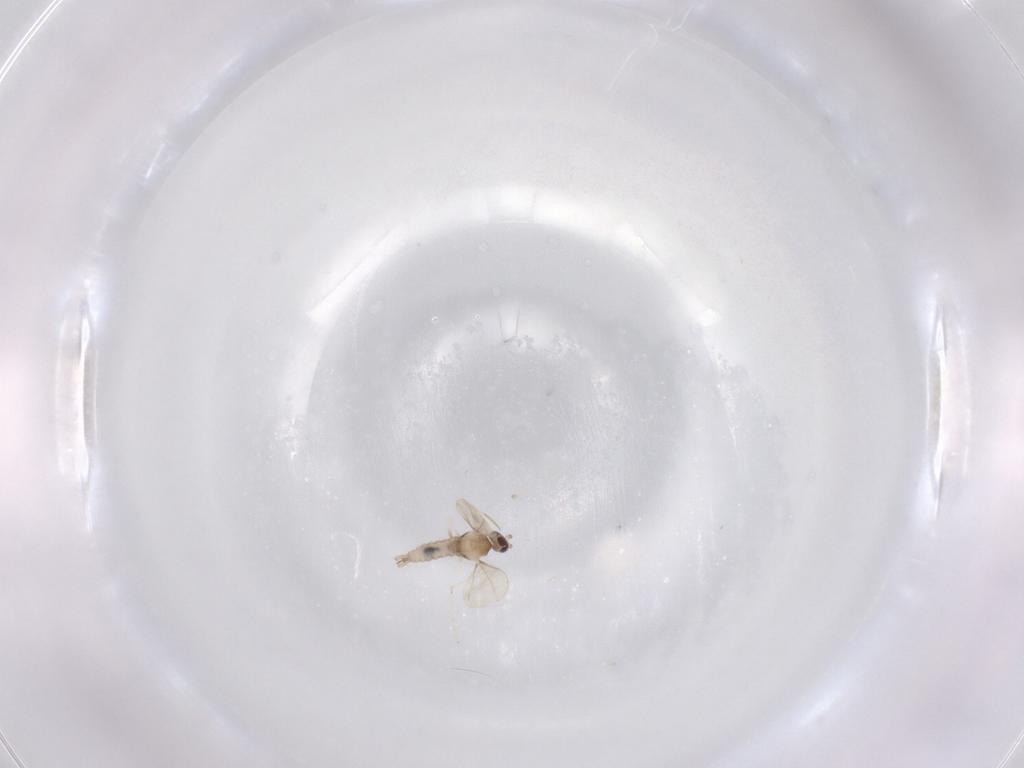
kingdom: Animalia
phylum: Arthropoda
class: Insecta
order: Diptera
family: Cecidomyiidae
